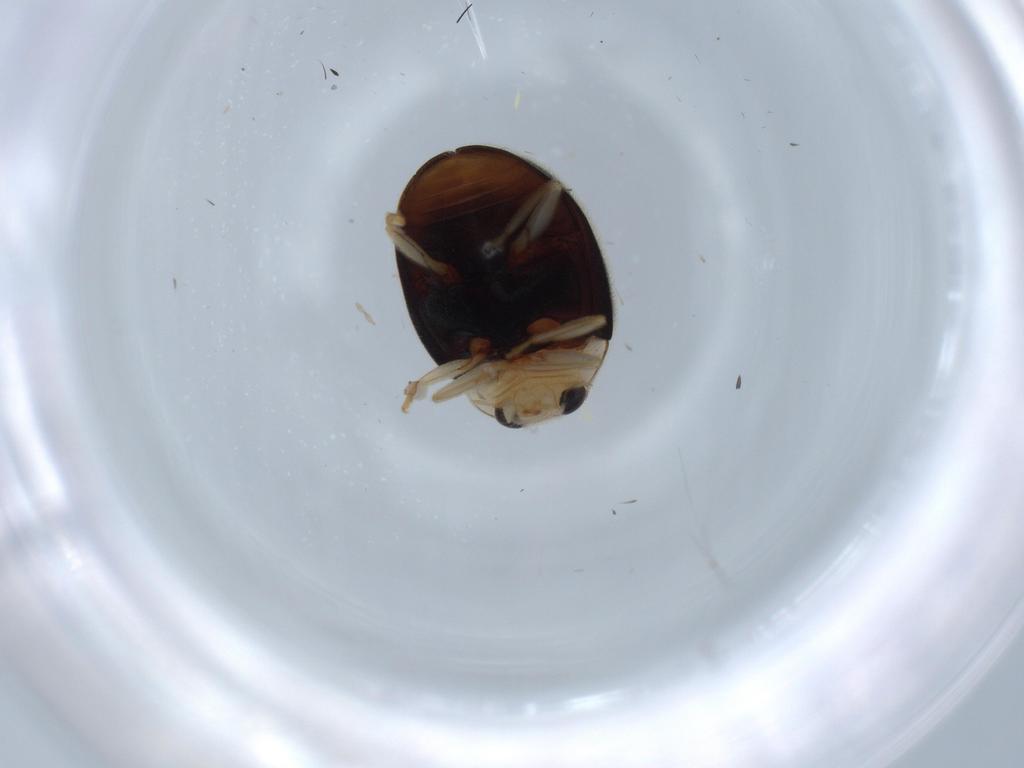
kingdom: Animalia
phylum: Arthropoda
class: Insecta
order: Coleoptera
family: Coccinellidae
